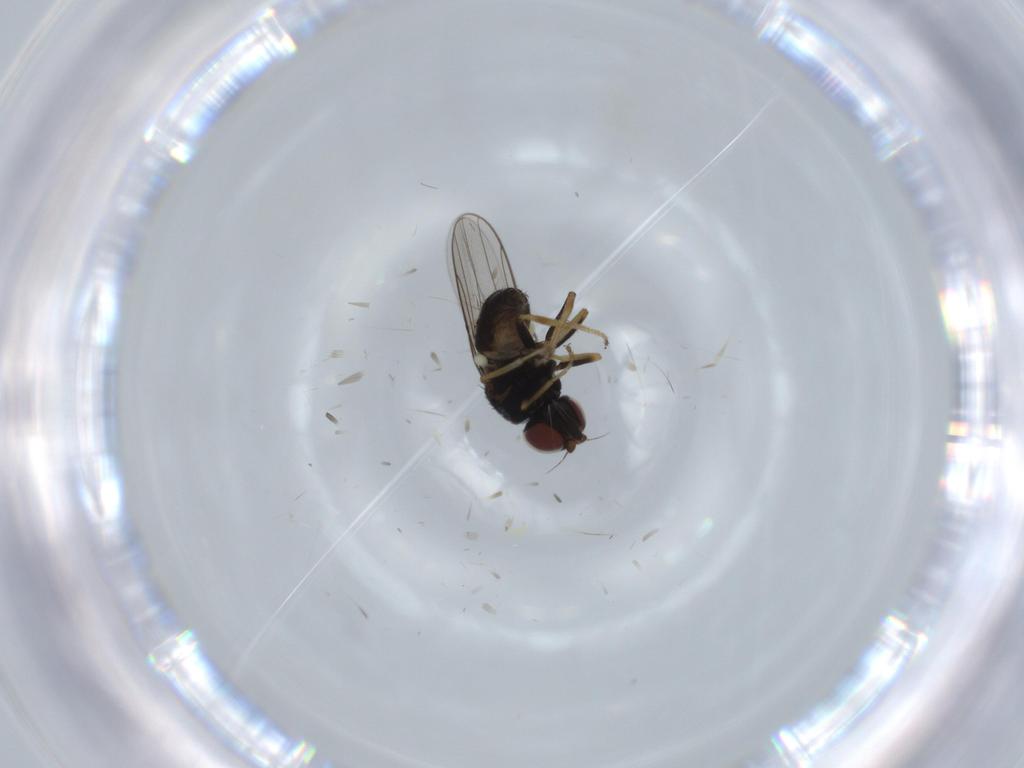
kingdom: Animalia
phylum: Arthropoda
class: Insecta
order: Diptera
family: Chloropidae
